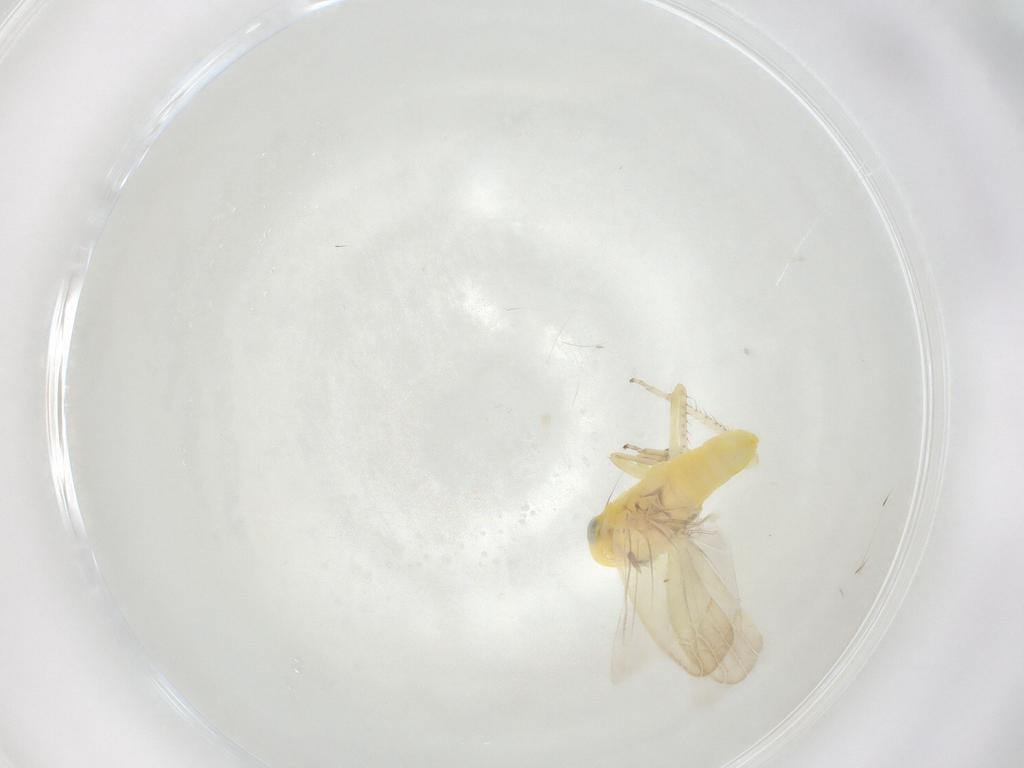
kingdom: Animalia
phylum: Arthropoda
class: Insecta
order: Hemiptera
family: Cicadellidae
